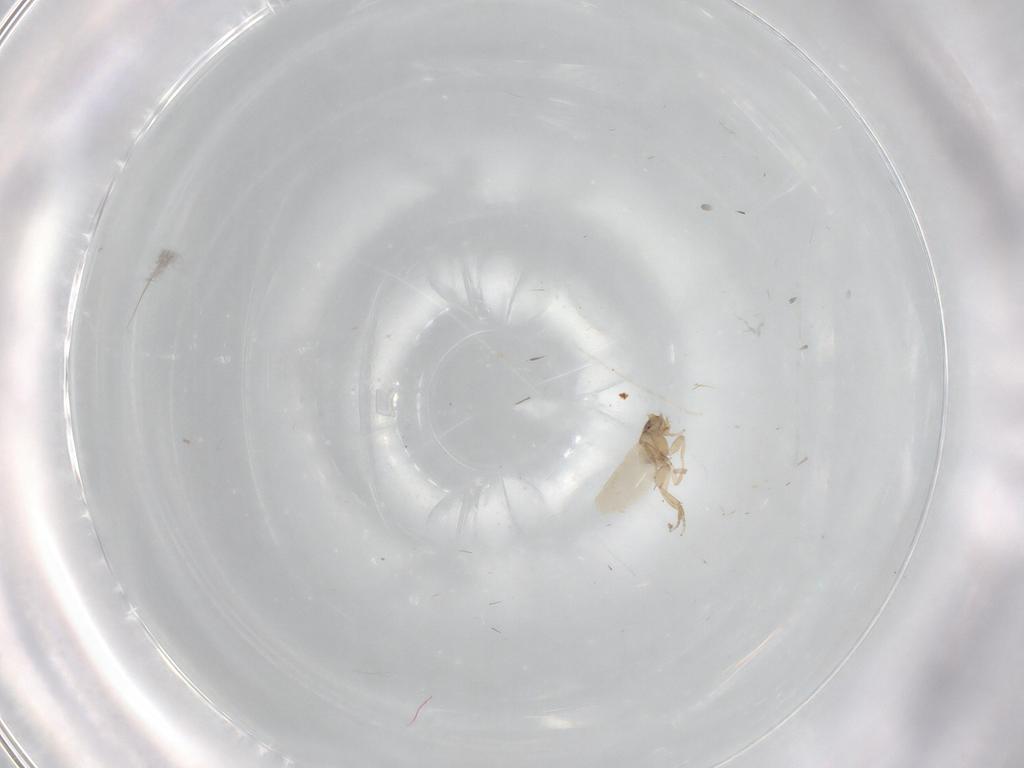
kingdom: Animalia
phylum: Arthropoda
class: Insecta
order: Diptera
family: Phoridae
